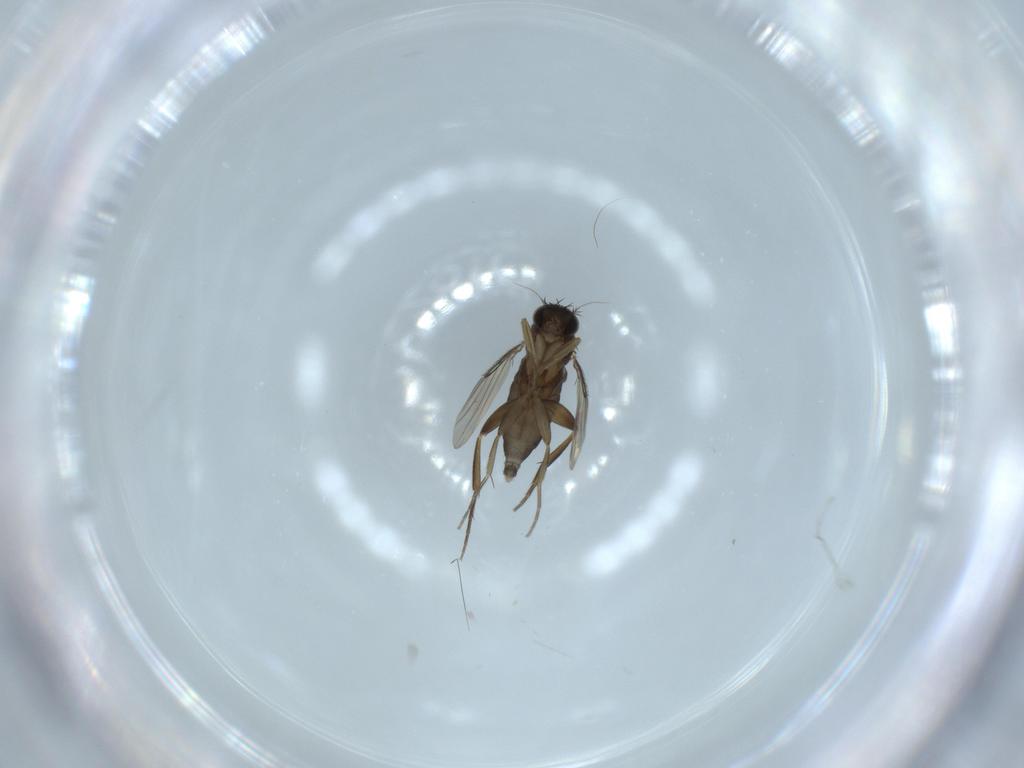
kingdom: Animalia
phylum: Arthropoda
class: Insecta
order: Diptera
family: Phoridae
